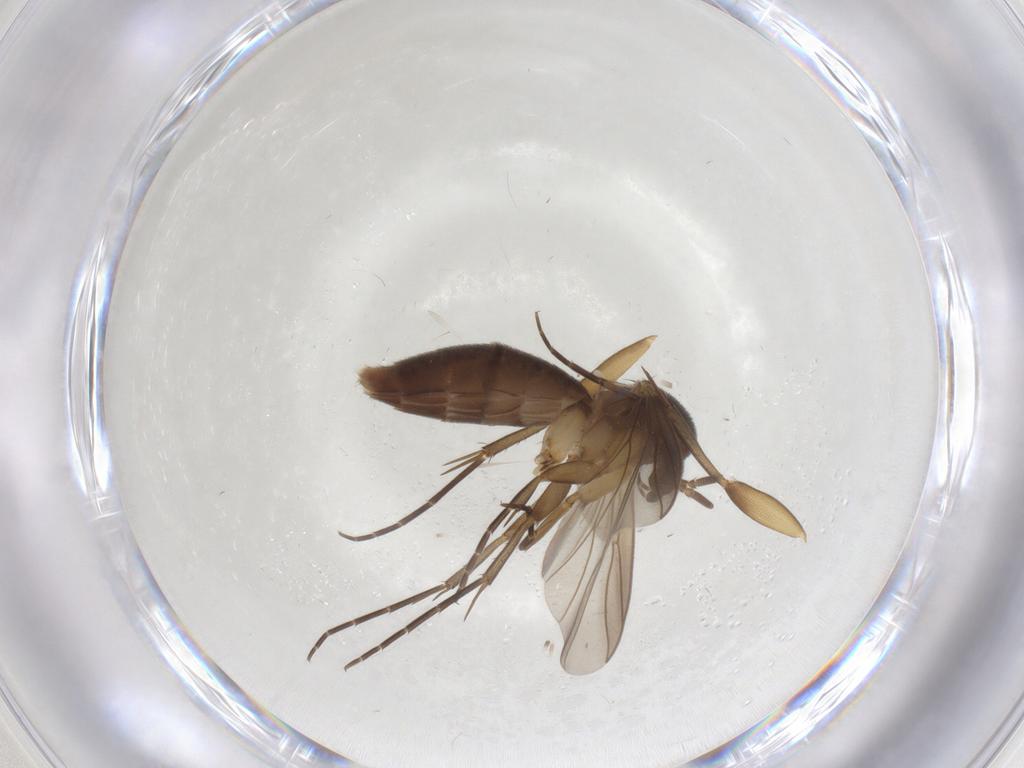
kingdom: Animalia
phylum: Arthropoda
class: Insecta
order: Diptera
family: Mycetophilidae
